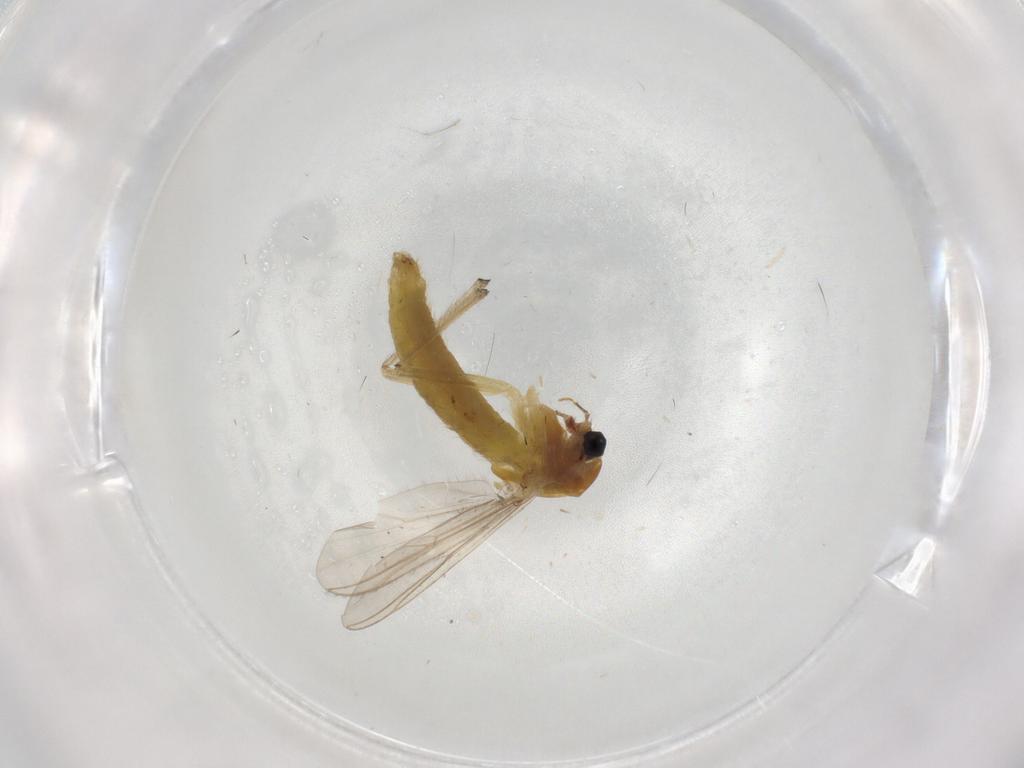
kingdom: Animalia
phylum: Arthropoda
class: Insecta
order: Diptera
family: Chironomidae
